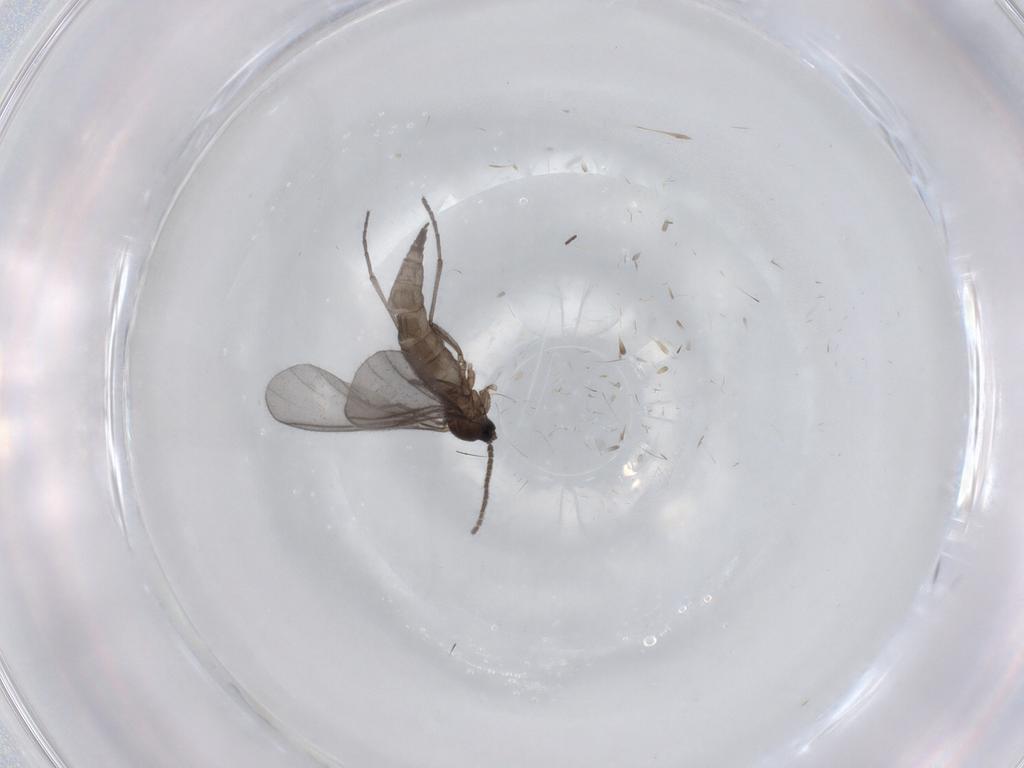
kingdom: Animalia
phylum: Arthropoda
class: Insecta
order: Diptera
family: Sciaridae
